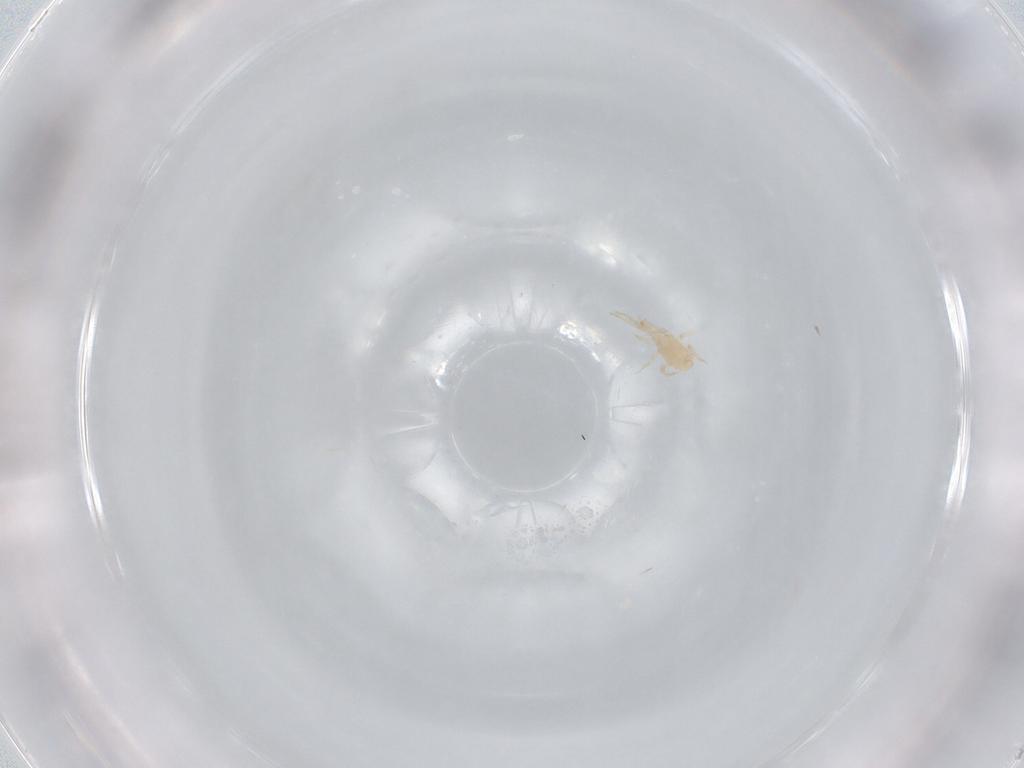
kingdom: Animalia
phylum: Arthropoda
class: Arachnida
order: Mesostigmata
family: Blattisociidae
